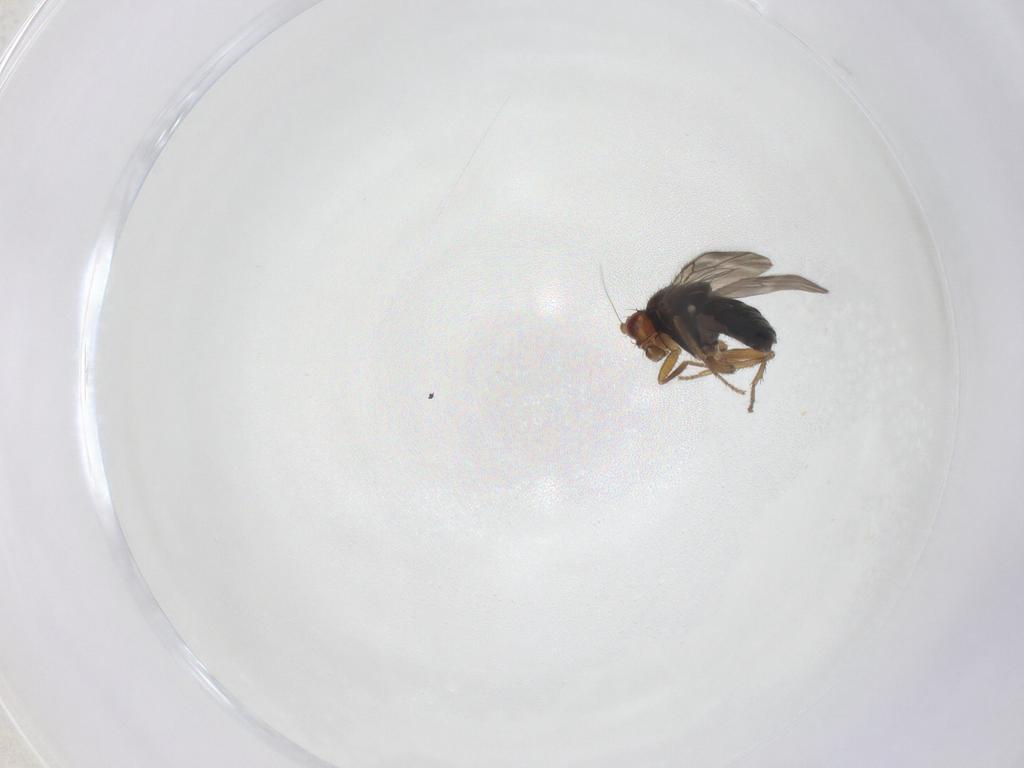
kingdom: Animalia
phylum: Arthropoda
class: Insecta
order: Diptera
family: Sphaeroceridae
